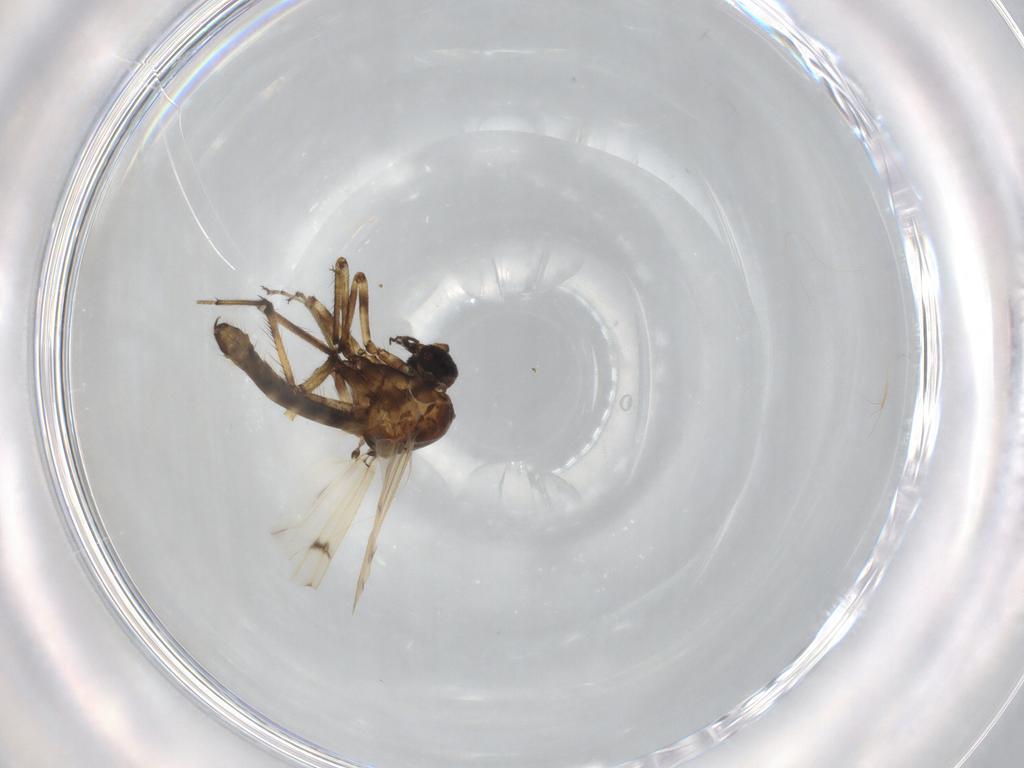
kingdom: Animalia
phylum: Arthropoda
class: Insecta
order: Diptera
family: Ceratopogonidae
